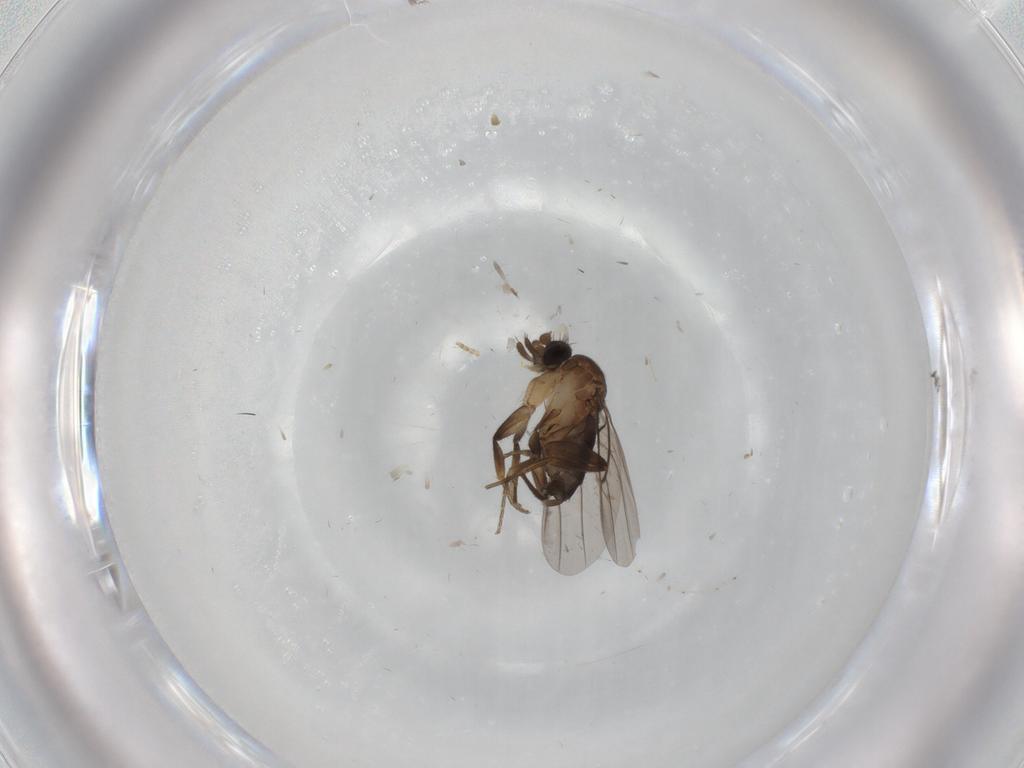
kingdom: Animalia
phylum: Arthropoda
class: Insecta
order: Diptera
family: Phoridae
